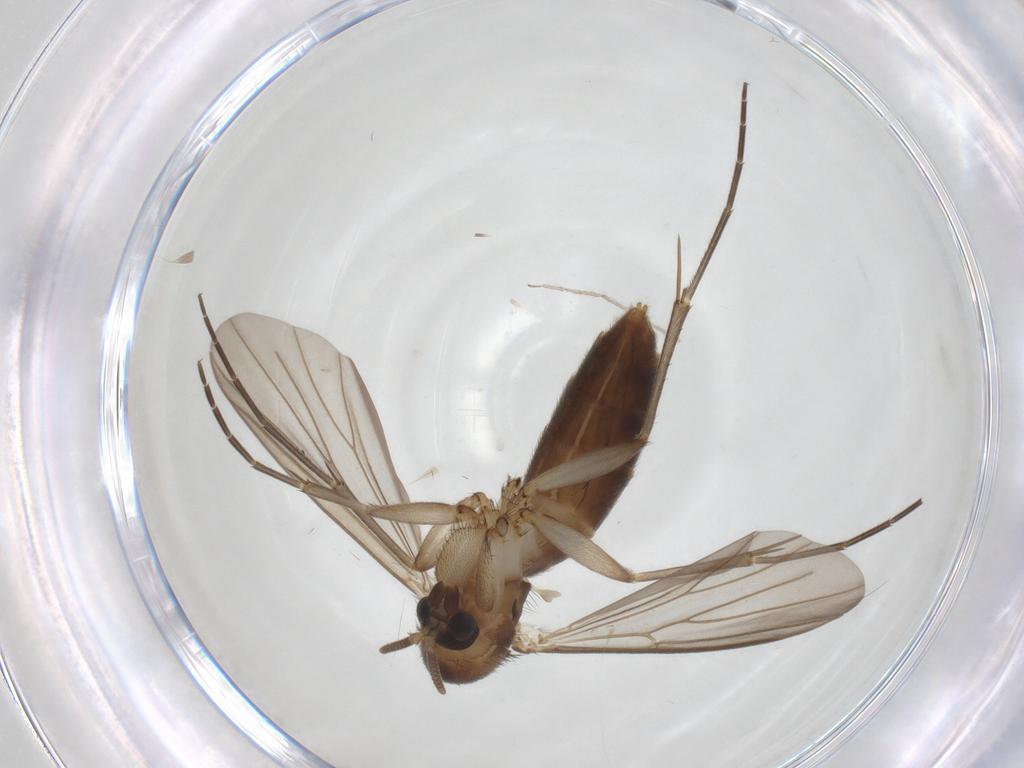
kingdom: Animalia
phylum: Arthropoda
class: Insecta
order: Diptera
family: Mycetophilidae
